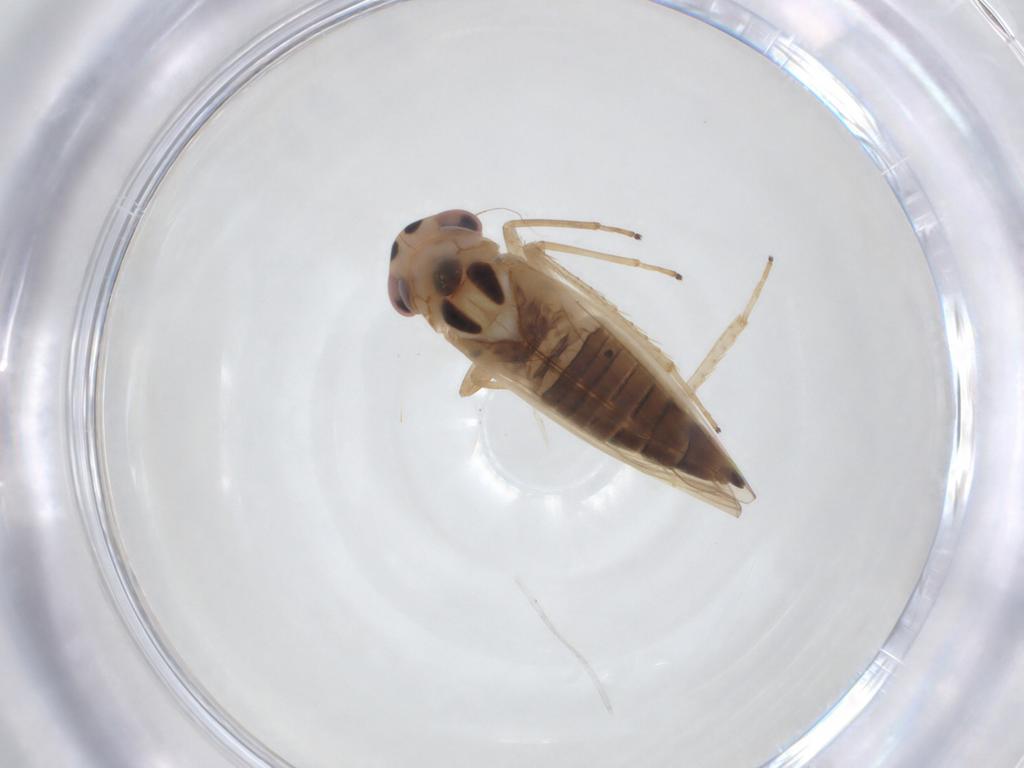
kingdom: Animalia
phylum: Arthropoda
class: Insecta
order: Hemiptera
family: Cicadellidae
